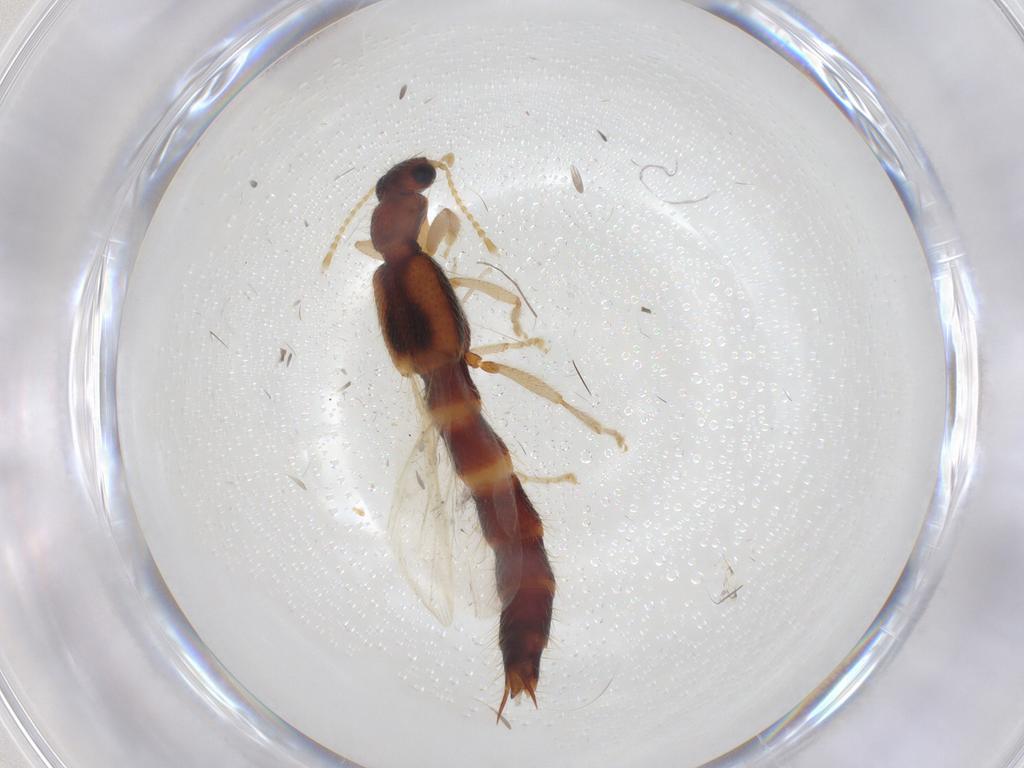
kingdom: Animalia
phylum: Arthropoda
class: Insecta
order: Coleoptera
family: Staphylinidae
